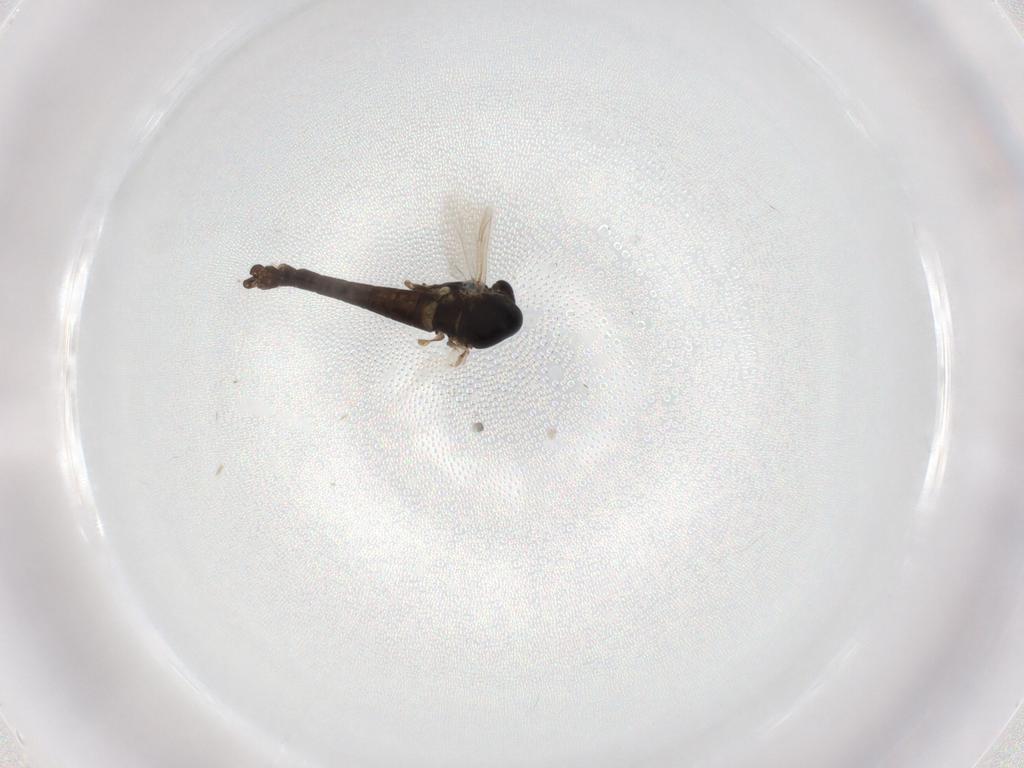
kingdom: Animalia
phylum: Arthropoda
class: Insecta
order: Diptera
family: Chironomidae
